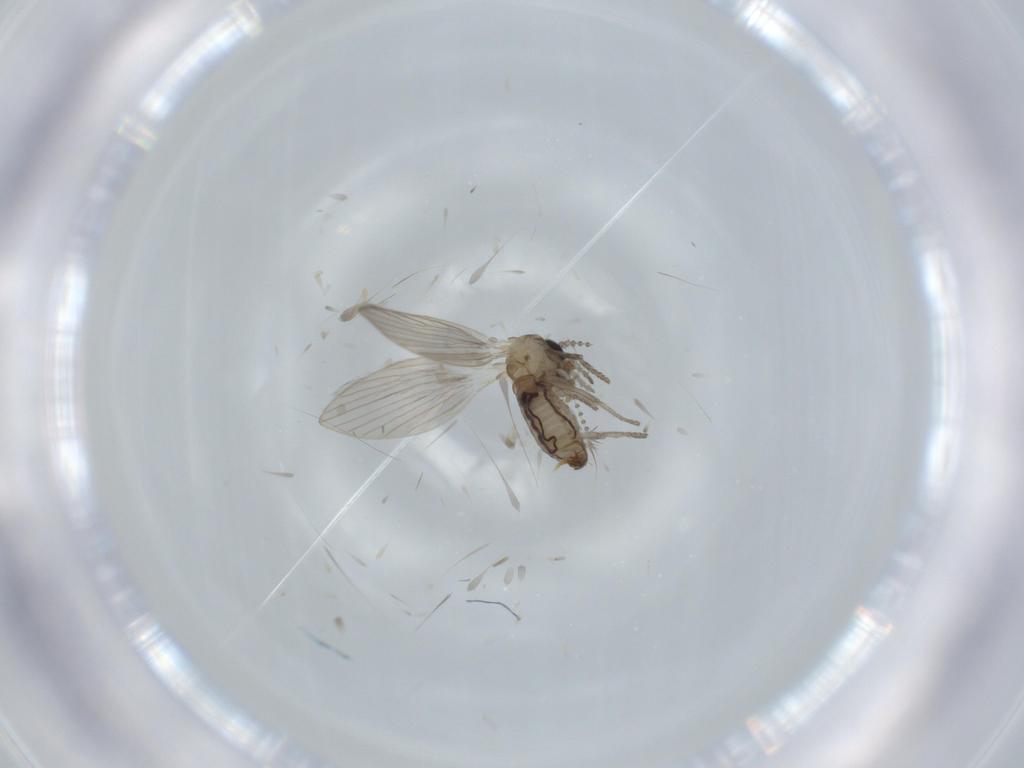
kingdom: Animalia
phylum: Arthropoda
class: Insecta
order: Diptera
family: Psychodidae
